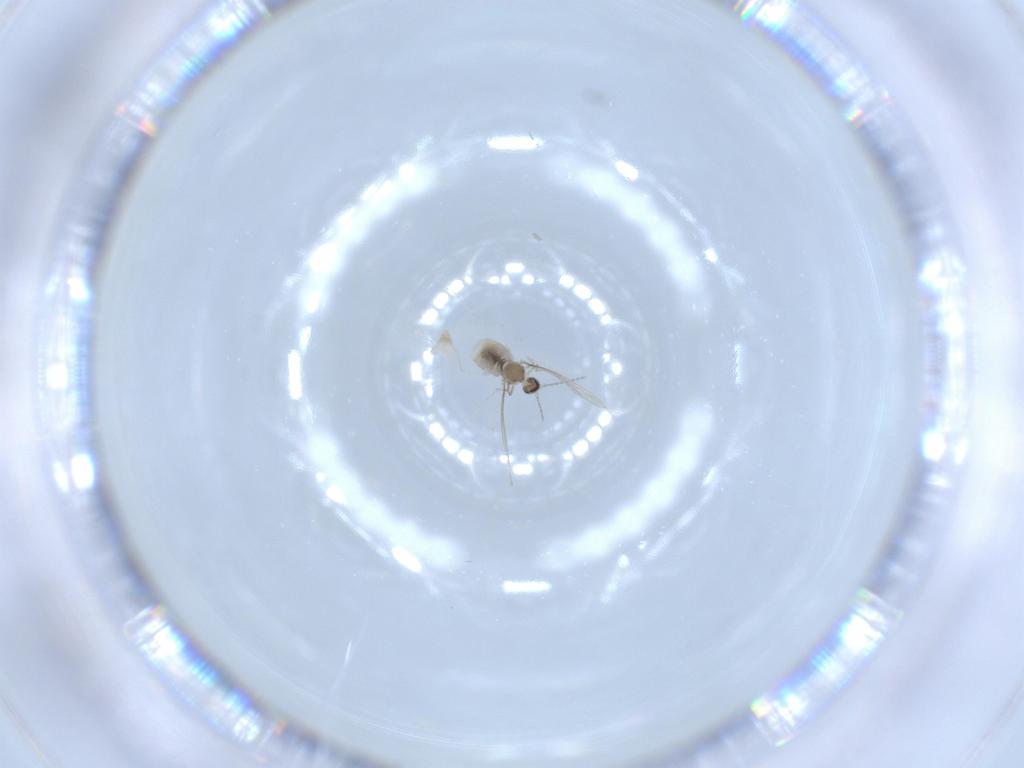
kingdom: Animalia
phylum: Arthropoda
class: Insecta
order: Diptera
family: Cecidomyiidae
